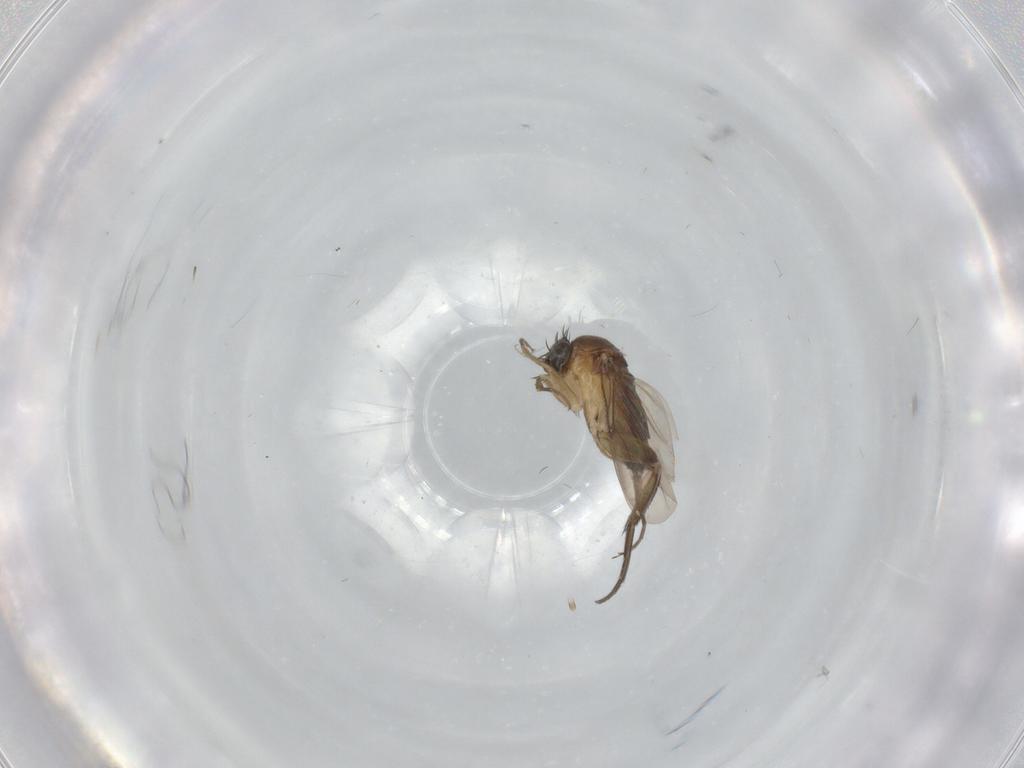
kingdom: Animalia
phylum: Arthropoda
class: Insecta
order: Diptera
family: Phoridae
